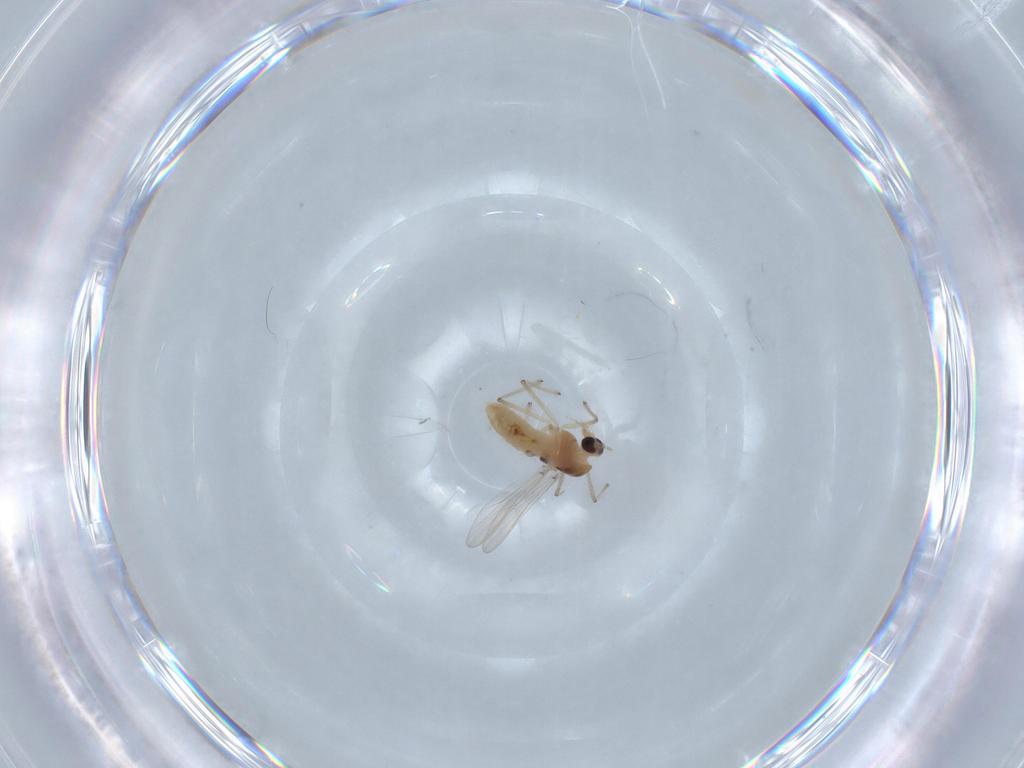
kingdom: Animalia
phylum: Arthropoda
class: Insecta
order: Diptera
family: Chironomidae
